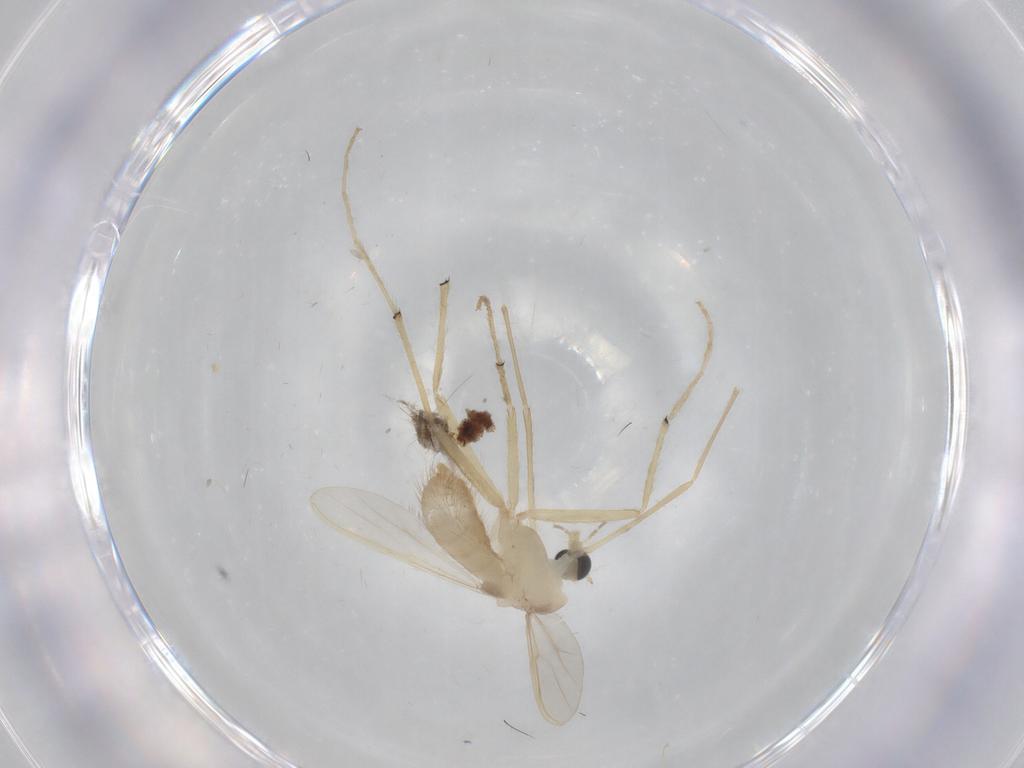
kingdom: Animalia
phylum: Arthropoda
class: Insecta
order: Diptera
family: Chironomidae
